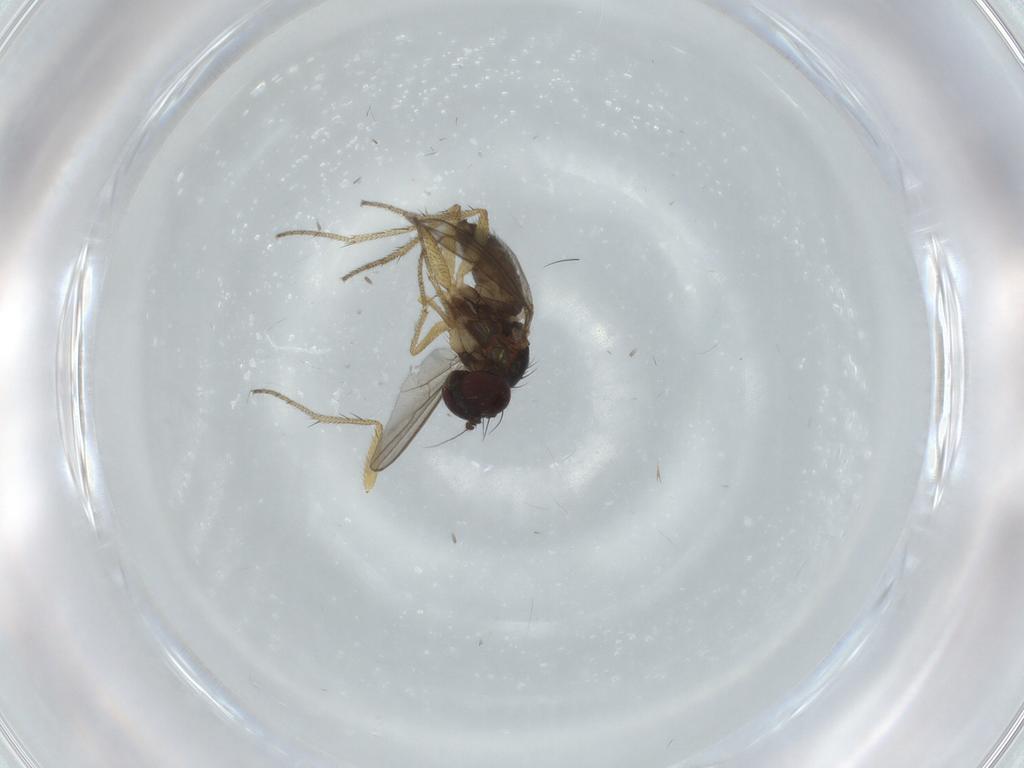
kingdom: Animalia
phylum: Arthropoda
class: Insecta
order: Diptera
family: Dolichopodidae
